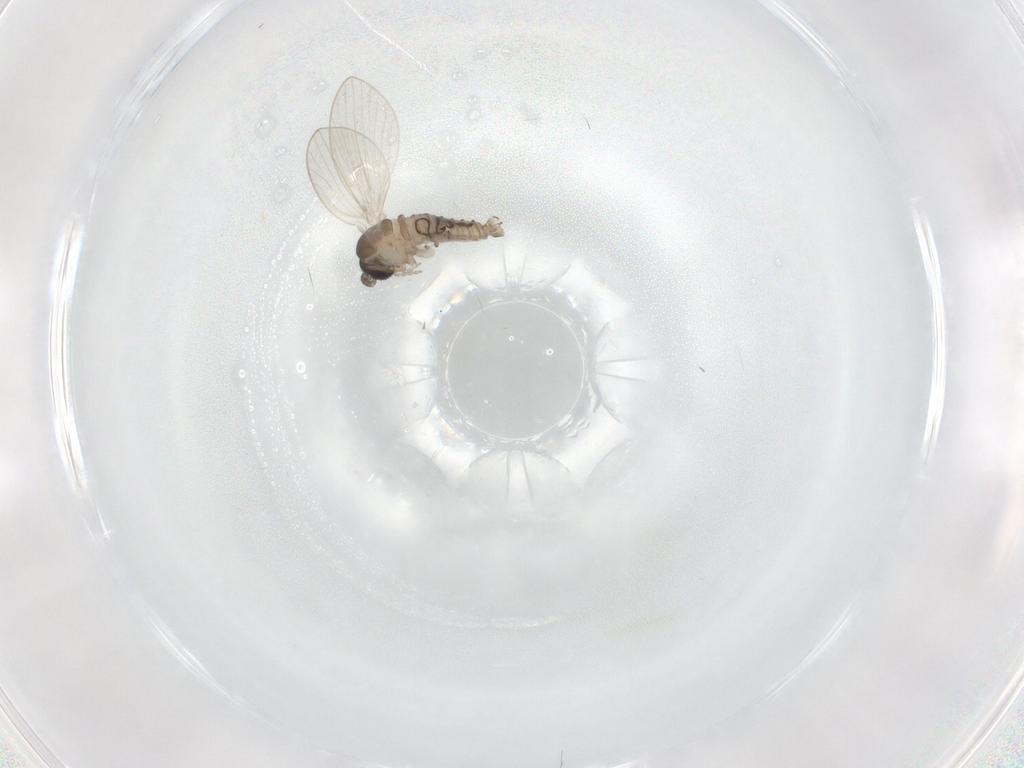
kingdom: Animalia
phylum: Arthropoda
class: Insecta
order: Diptera
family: Psychodidae
